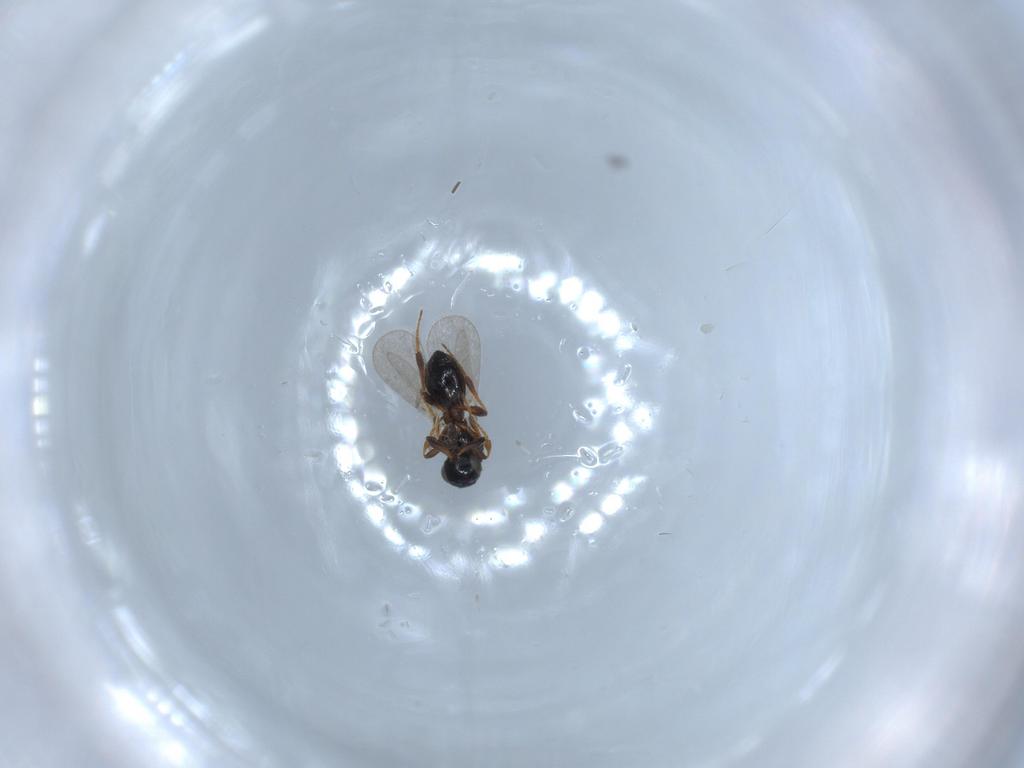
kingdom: Animalia
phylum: Arthropoda
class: Insecta
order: Hymenoptera
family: Platygastridae
